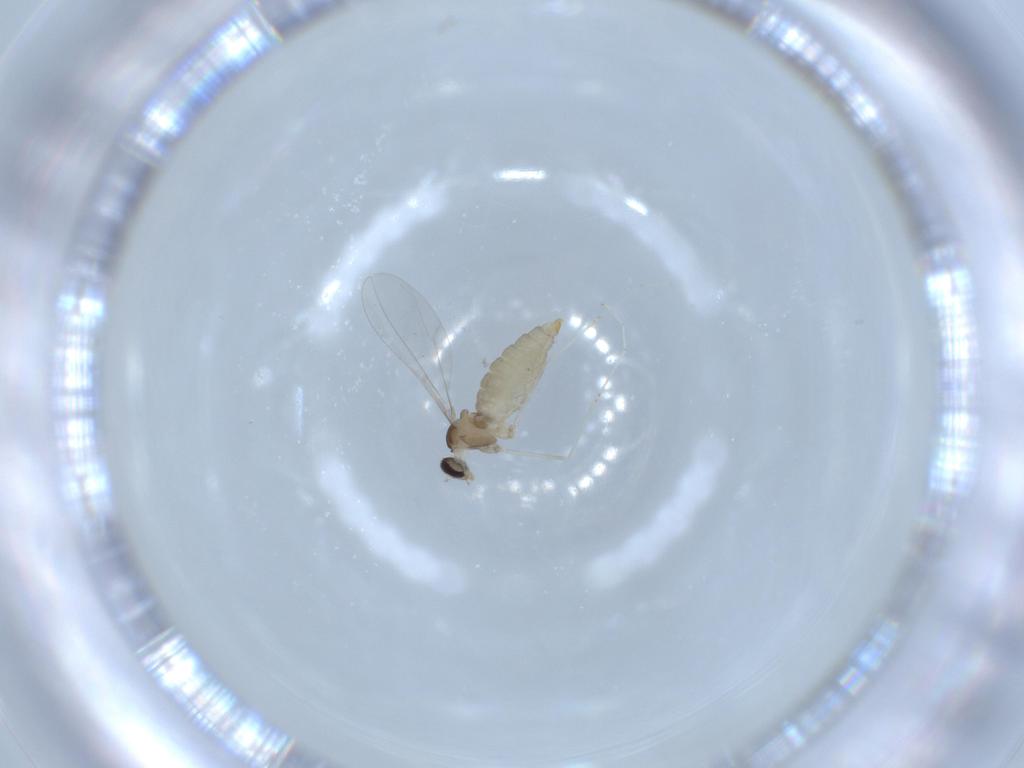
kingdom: Animalia
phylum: Arthropoda
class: Insecta
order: Diptera
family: Cecidomyiidae
